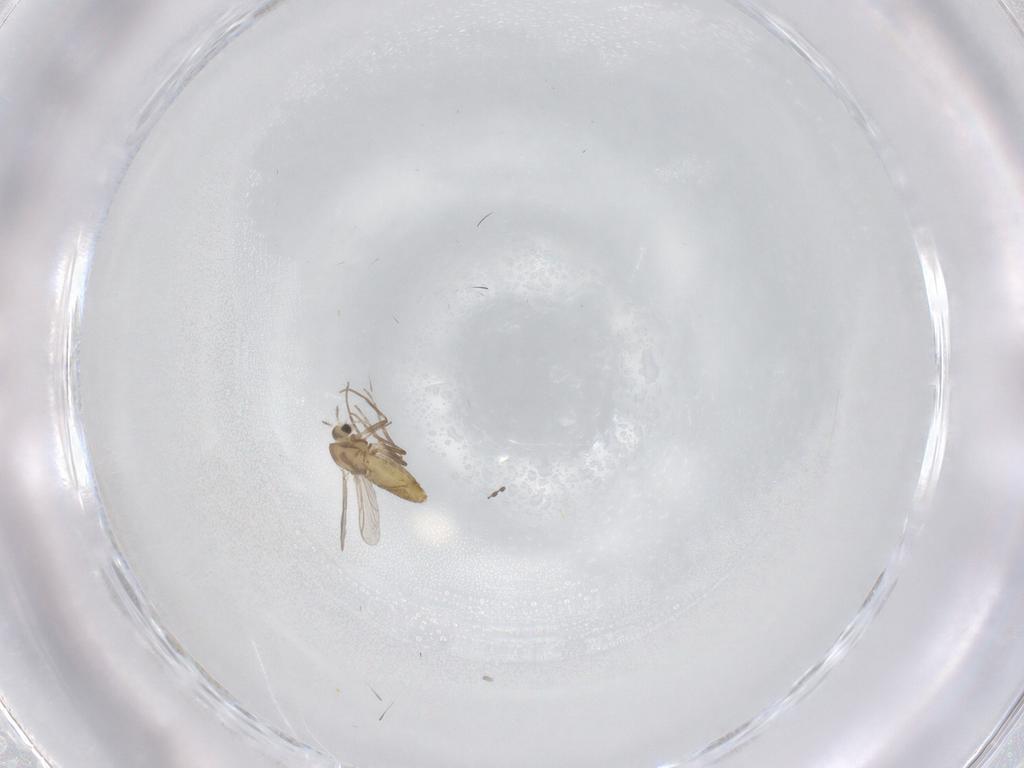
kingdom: Animalia
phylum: Arthropoda
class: Insecta
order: Diptera
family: Chironomidae
